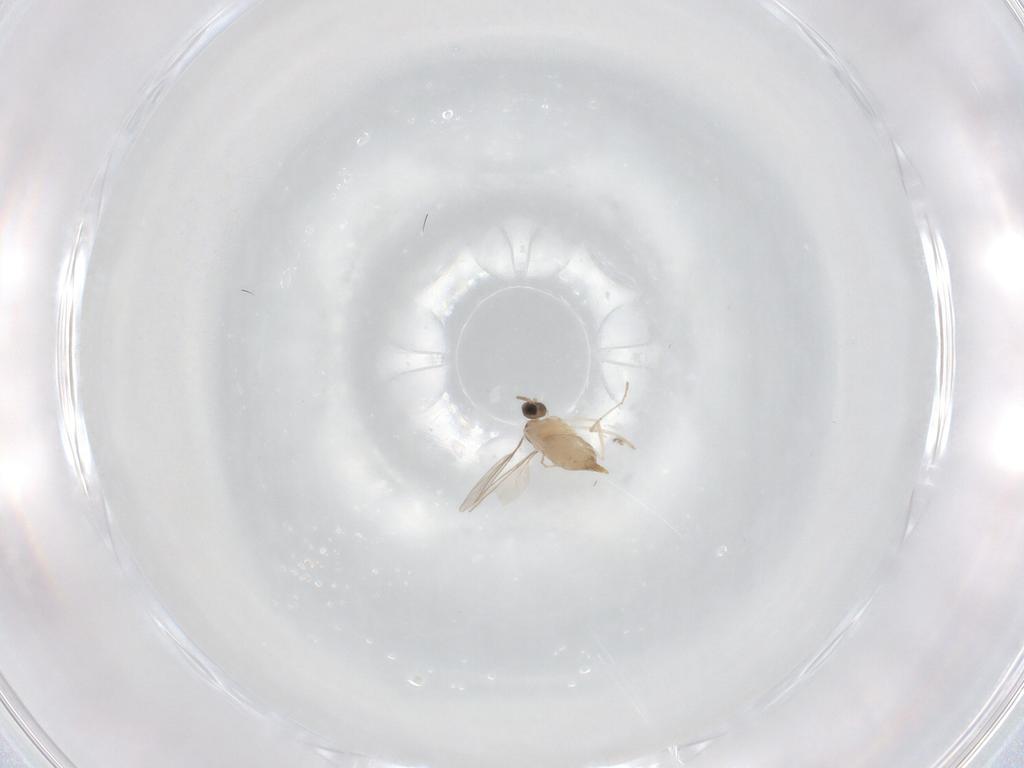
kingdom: Animalia
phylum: Arthropoda
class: Insecta
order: Diptera
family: Cecidomyiidae
